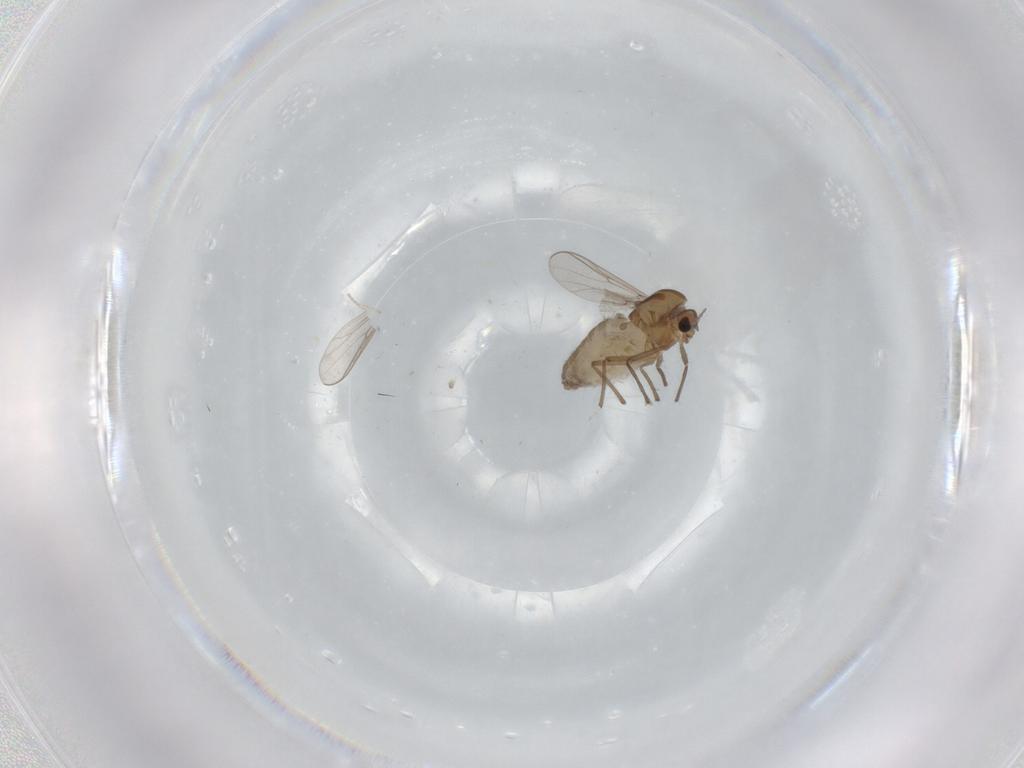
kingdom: Animalia
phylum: Arthropoda
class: Insecta
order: Diptera
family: Chironomidae
